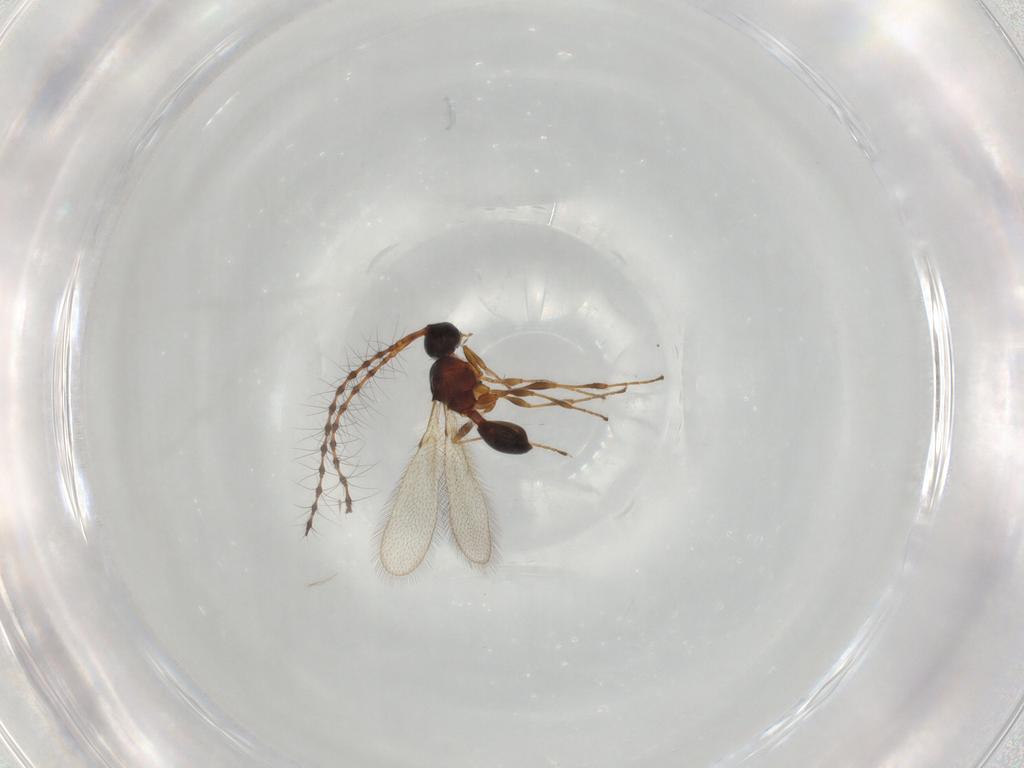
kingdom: Animalia
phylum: Arthropoda
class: Insecta
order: Hymenoptera
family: Diapriidae
